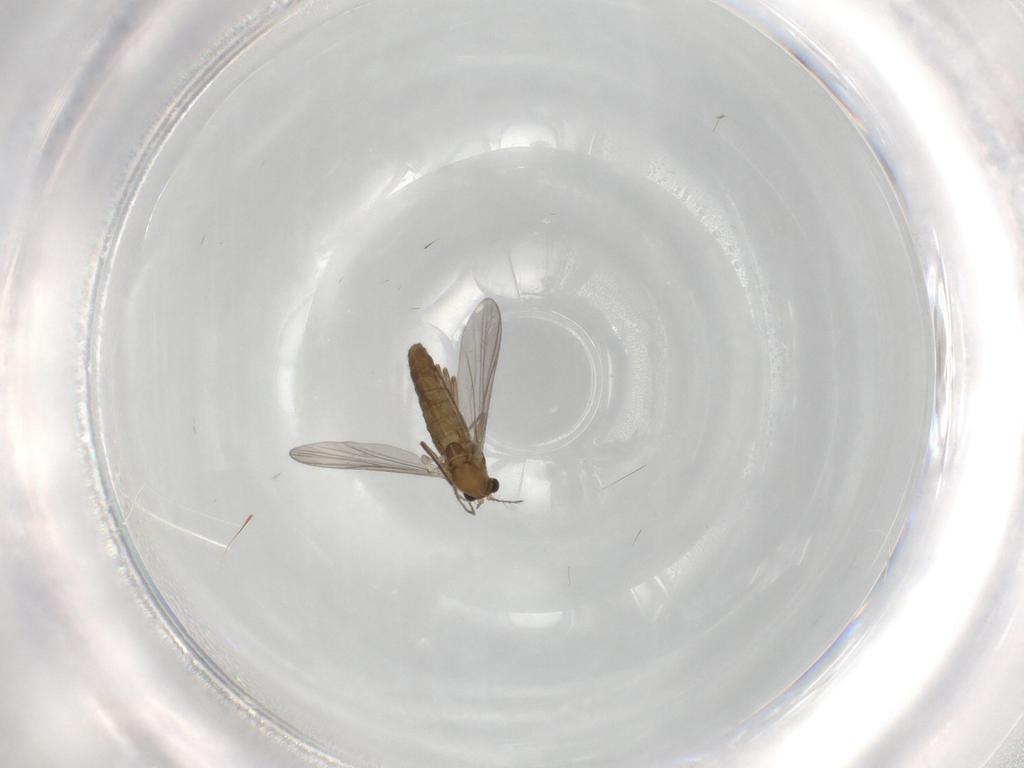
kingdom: Animalia
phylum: Arthropoda
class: Insecta
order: Diptera
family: Chironomidae
